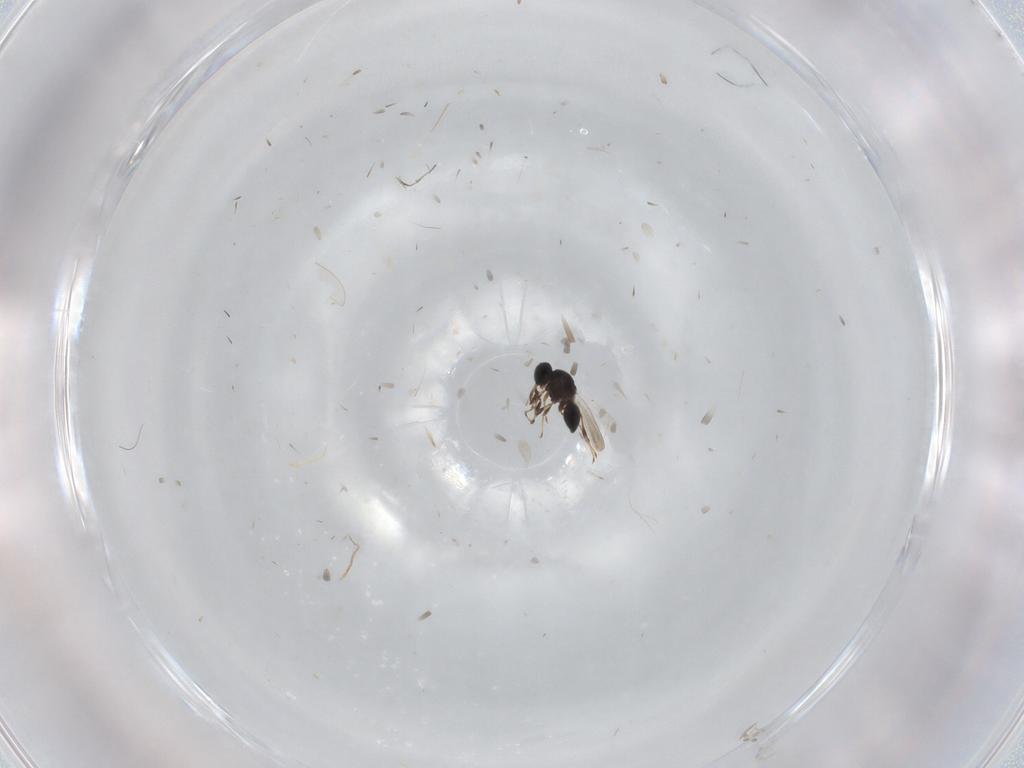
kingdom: Animalia
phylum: Arthropoda
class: Insecta
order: Hymenoptera
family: Platygastridae
